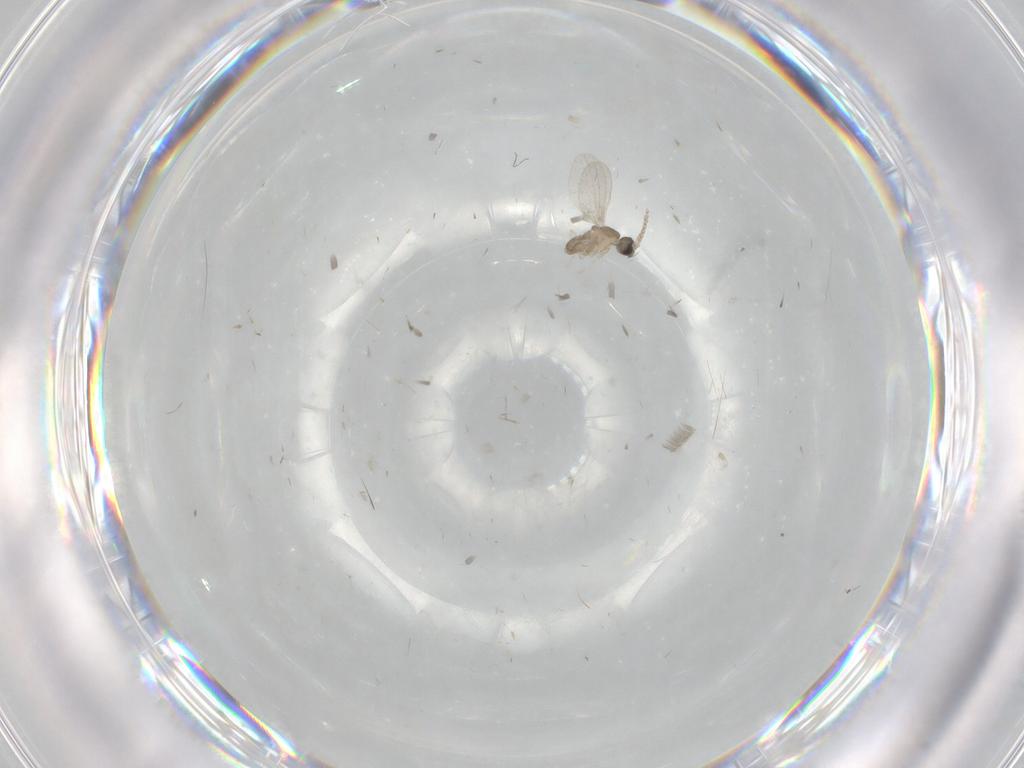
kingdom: Animalia
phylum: Arthropoda
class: Insecta
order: Diptera
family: Cecidomyiidae
